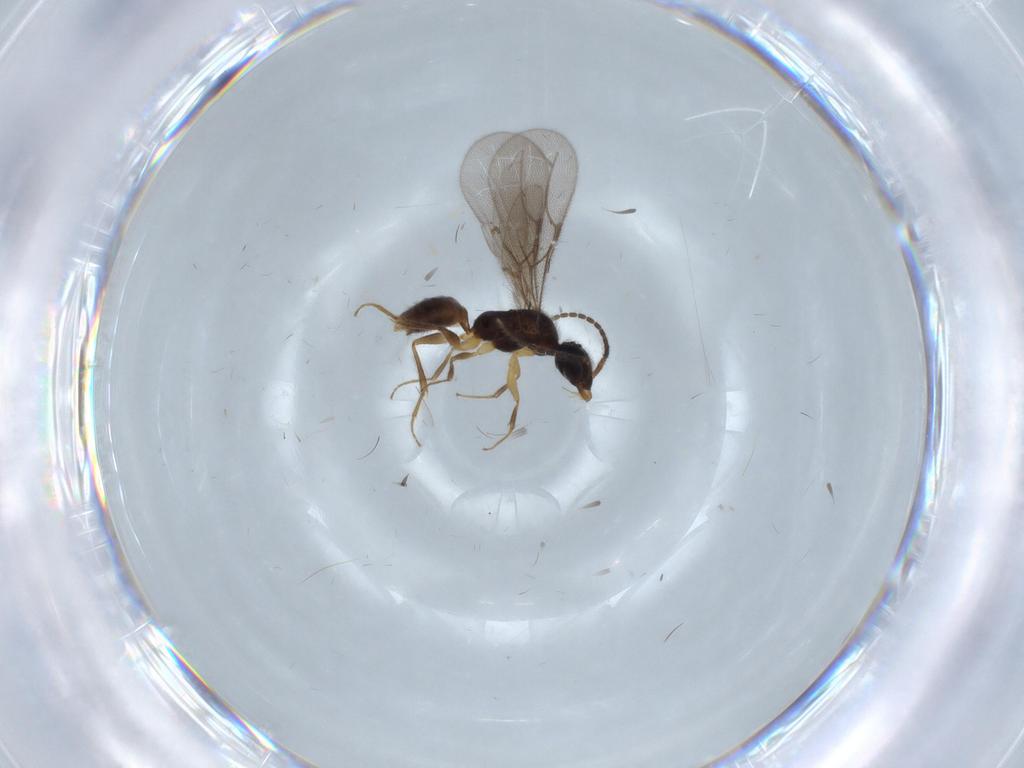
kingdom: Animalia
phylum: Arthropoda
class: Insecta
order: Hymenoptera
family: Bethylidae
